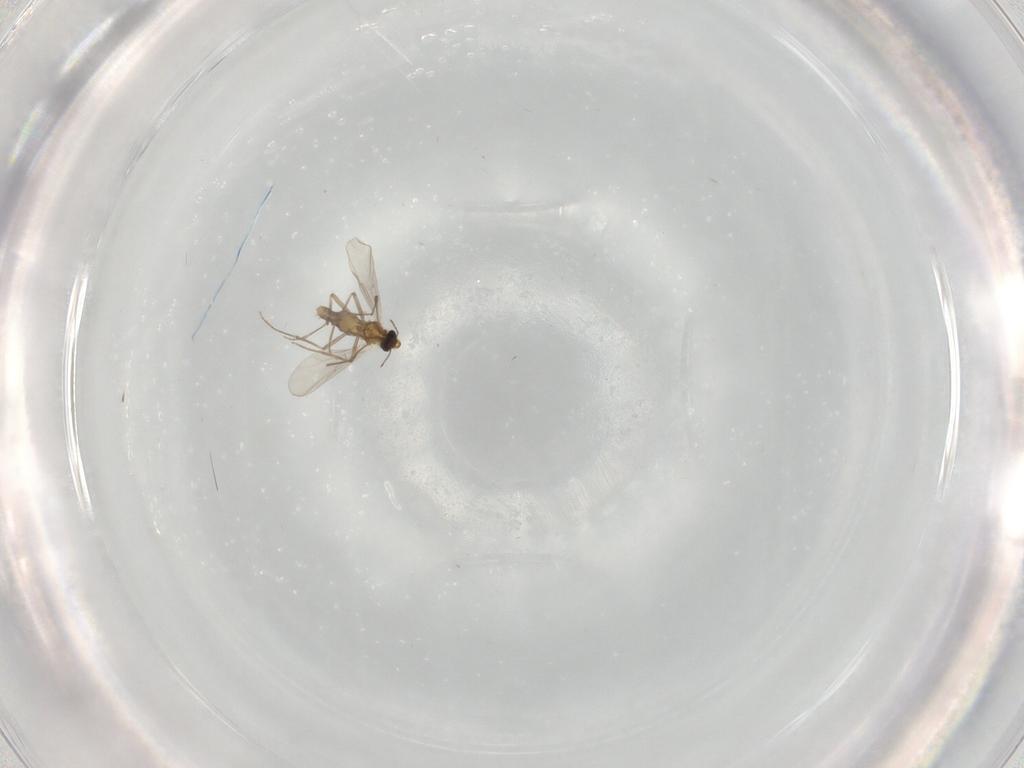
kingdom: Animalia
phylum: Arthropoda
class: Insecta
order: Diptera
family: Chironomidae
